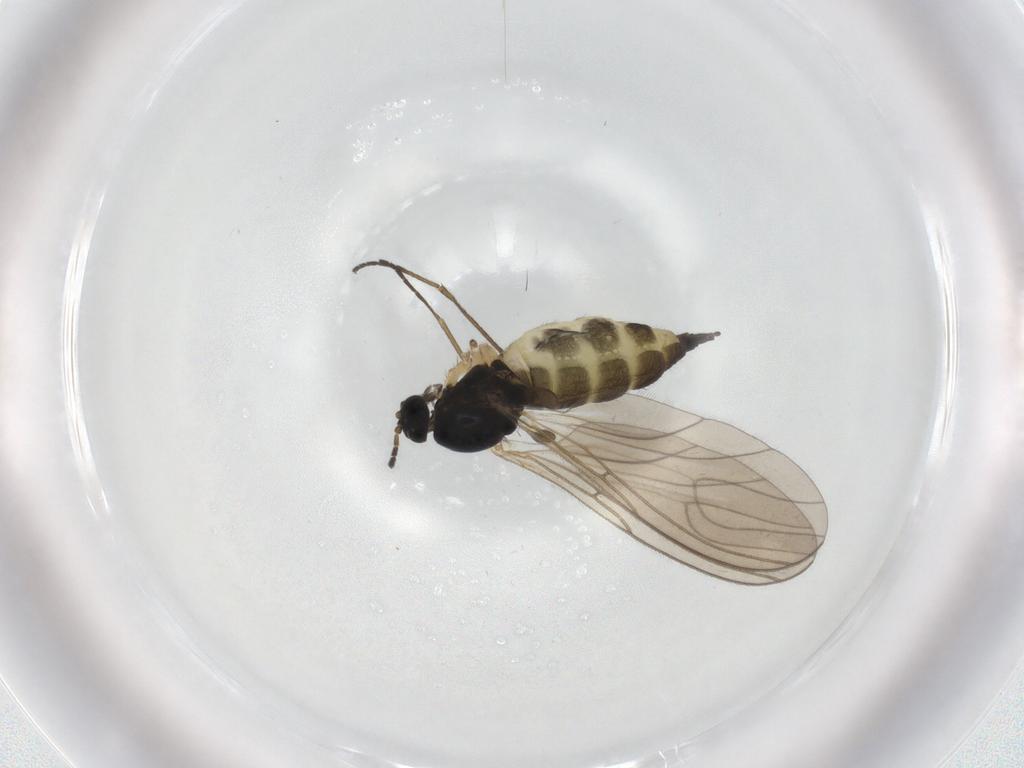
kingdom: Animalia
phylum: Arthropoda
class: Insecta
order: Diptera
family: Sciaridae
